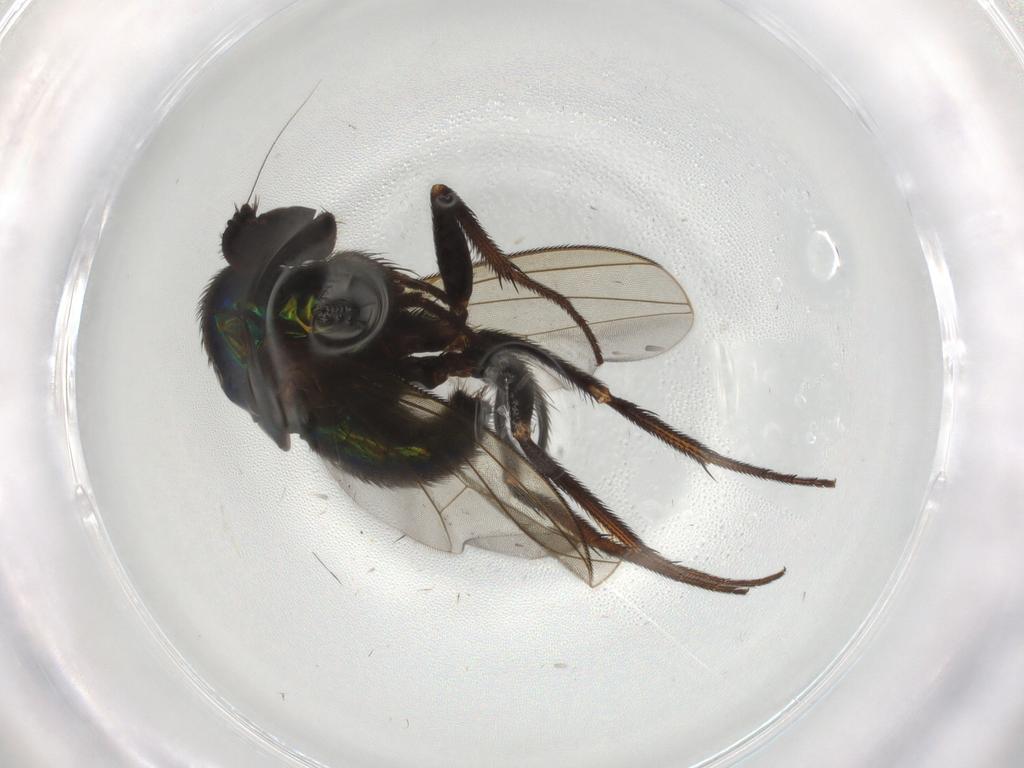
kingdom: Animalia
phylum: Arthropoda
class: Insecta
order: Diptera
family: Dolichopodidae
